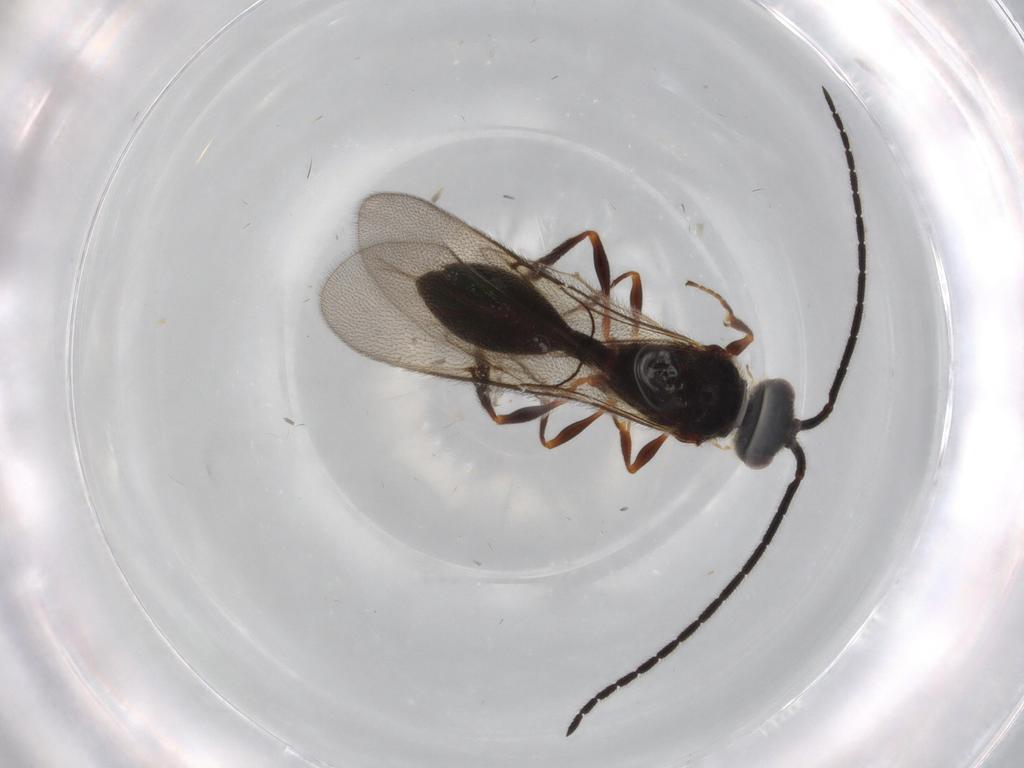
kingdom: Animalia
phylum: Arthropoda
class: Insecta
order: Hymenoptera
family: Diapriidae
